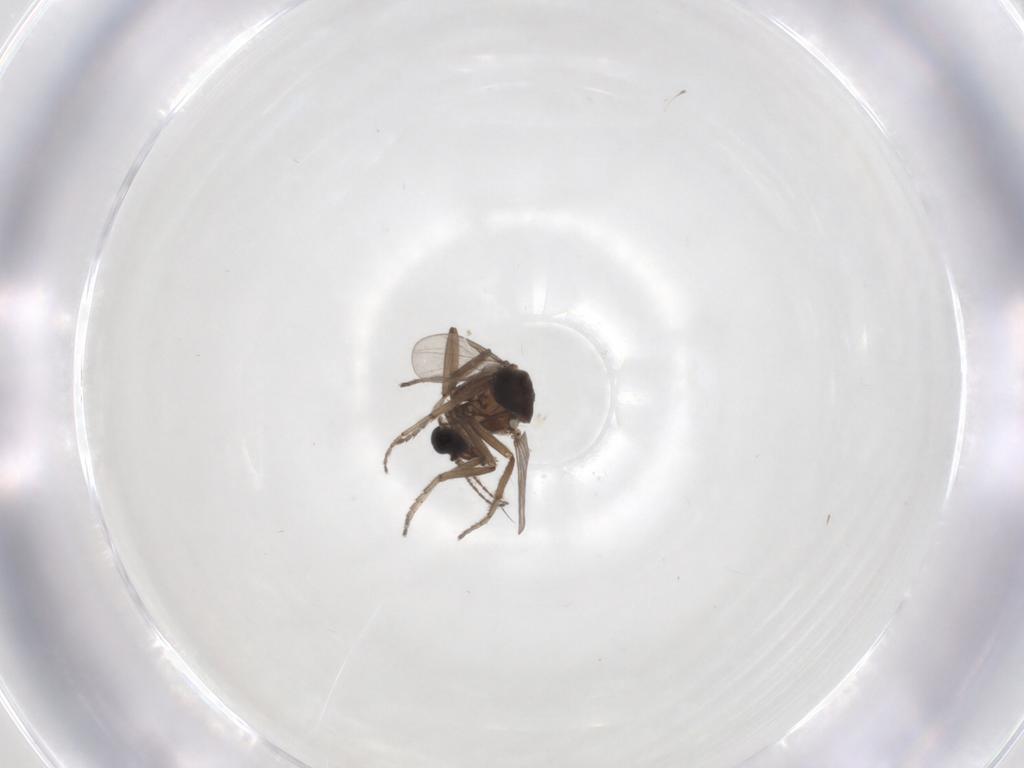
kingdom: Animalia
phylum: Arthropoda
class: Insecta
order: Diptera
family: Ceratopogonidae
